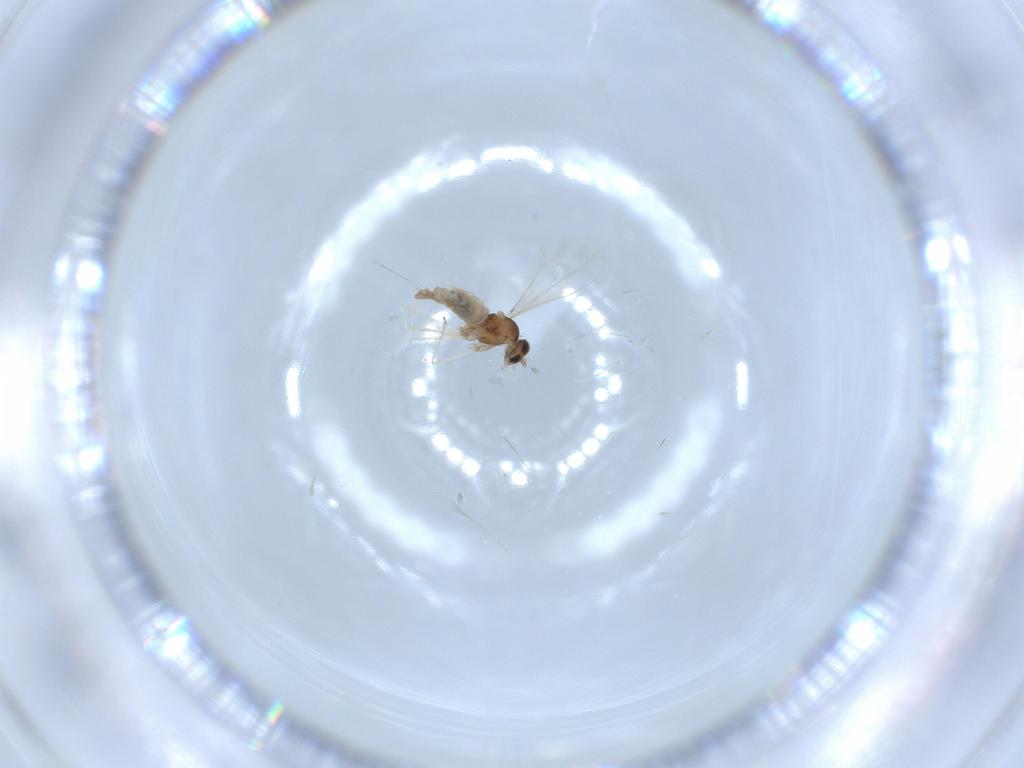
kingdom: Animalia
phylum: Arthropoda
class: Insecta
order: Diptera
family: Cecidomyiidae
